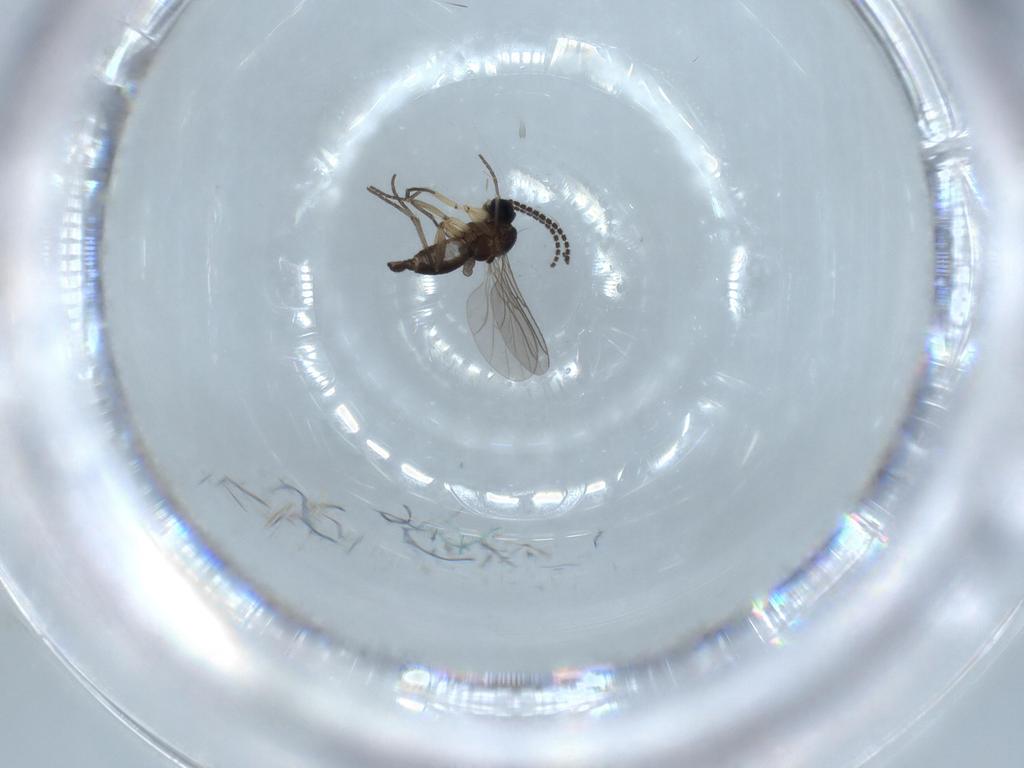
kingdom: Animalia
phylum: Arthropoda
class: Insecta
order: Diptera
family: Sciaridae
